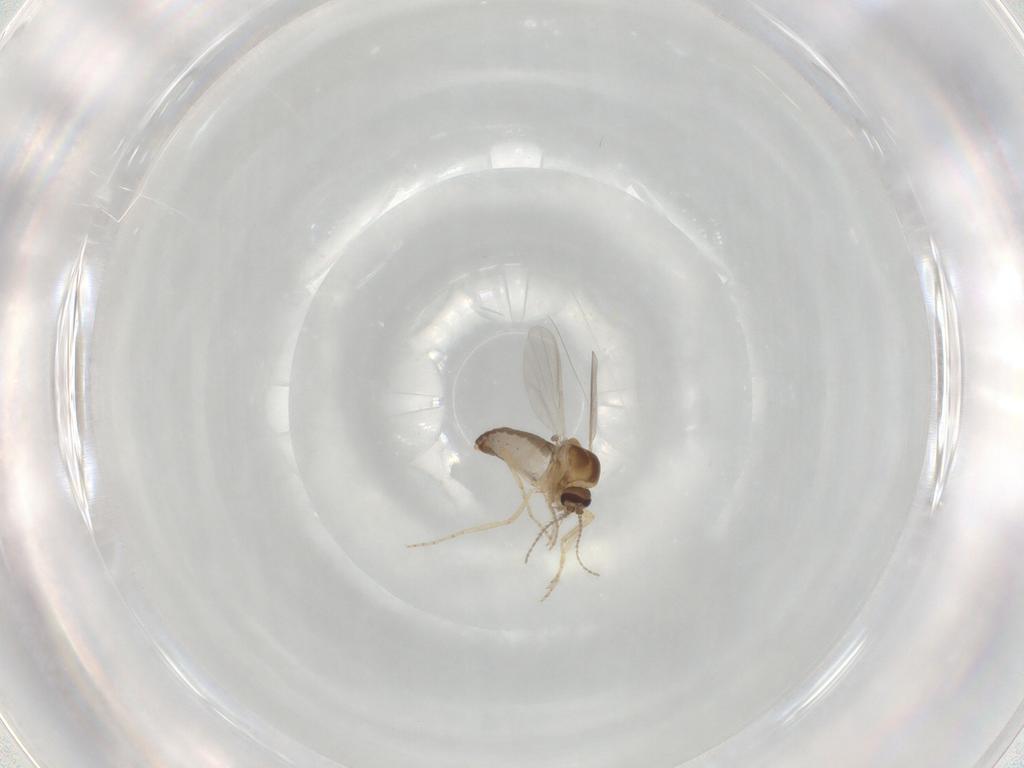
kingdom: Animalia
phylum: Arthropoda
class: Insecta
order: Diptera
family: Ceratopogonidae
